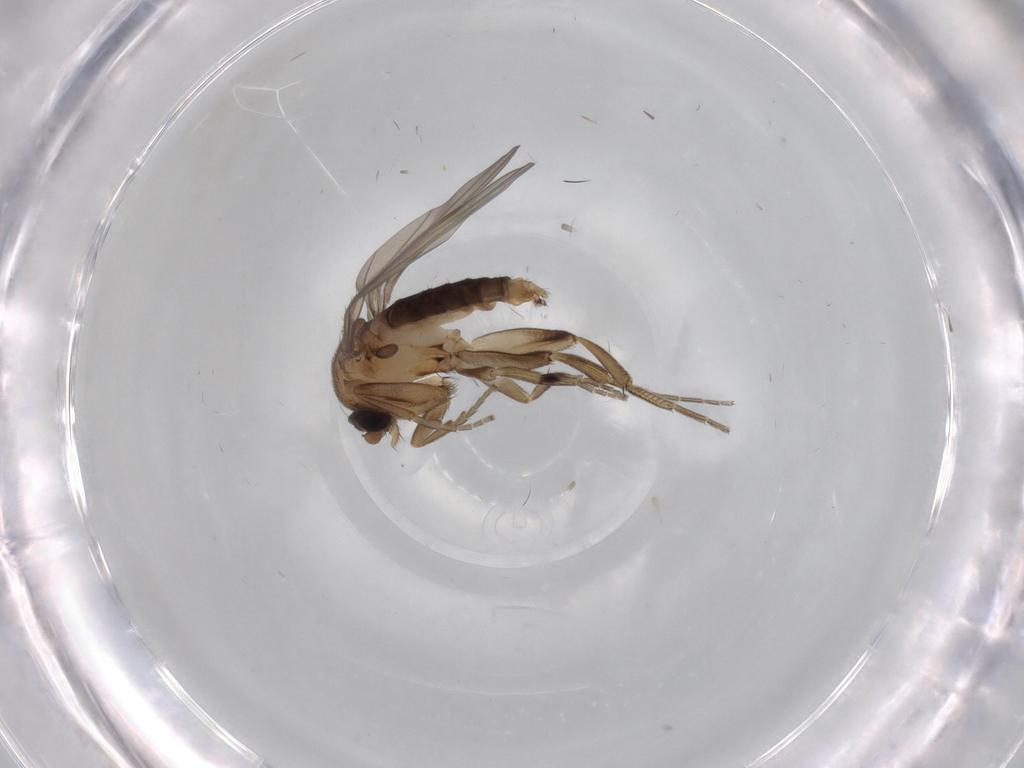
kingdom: Animalia
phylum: Arthropoda
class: Insecta
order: Diptera
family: Phoridae
